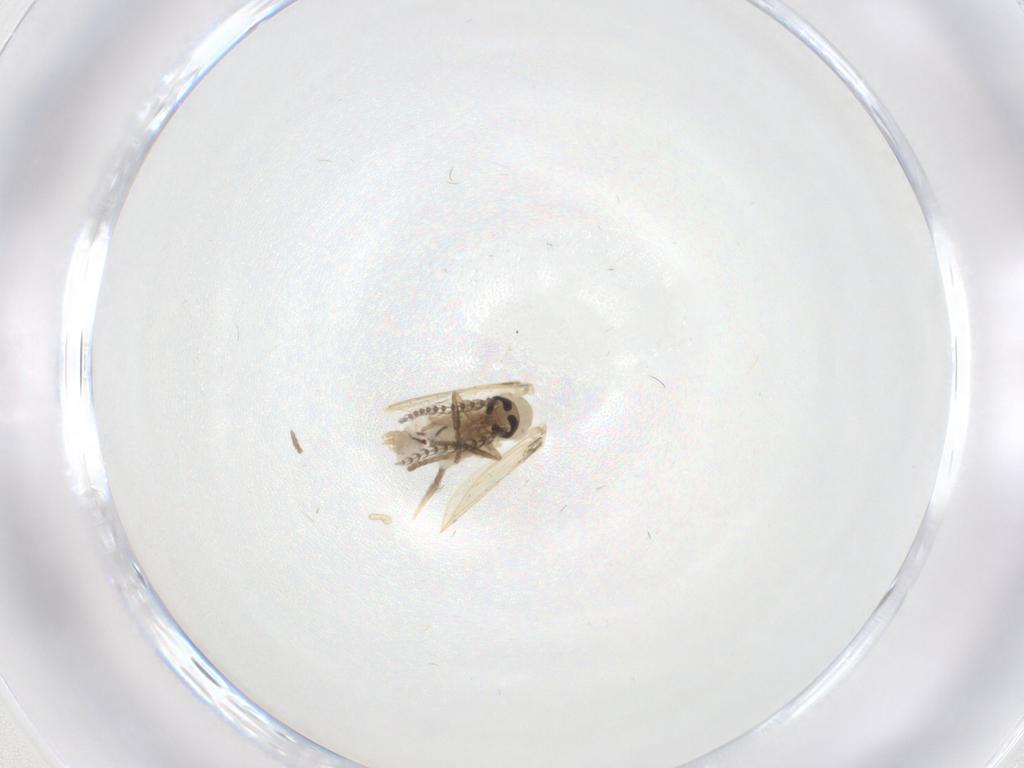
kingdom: Animalia
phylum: Arthropoda
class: Insecta
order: Diptera
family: Psychodidae
